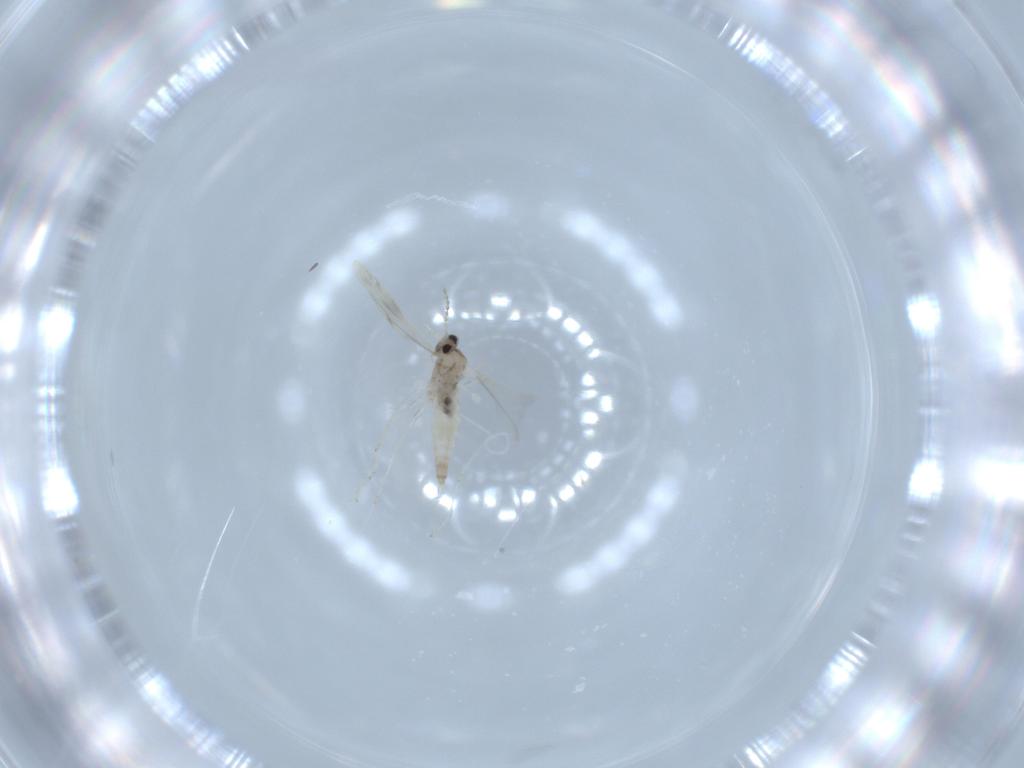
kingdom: Animalia
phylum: Arthropoda
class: Insecta
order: Diptera
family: Cecidomyiidae
